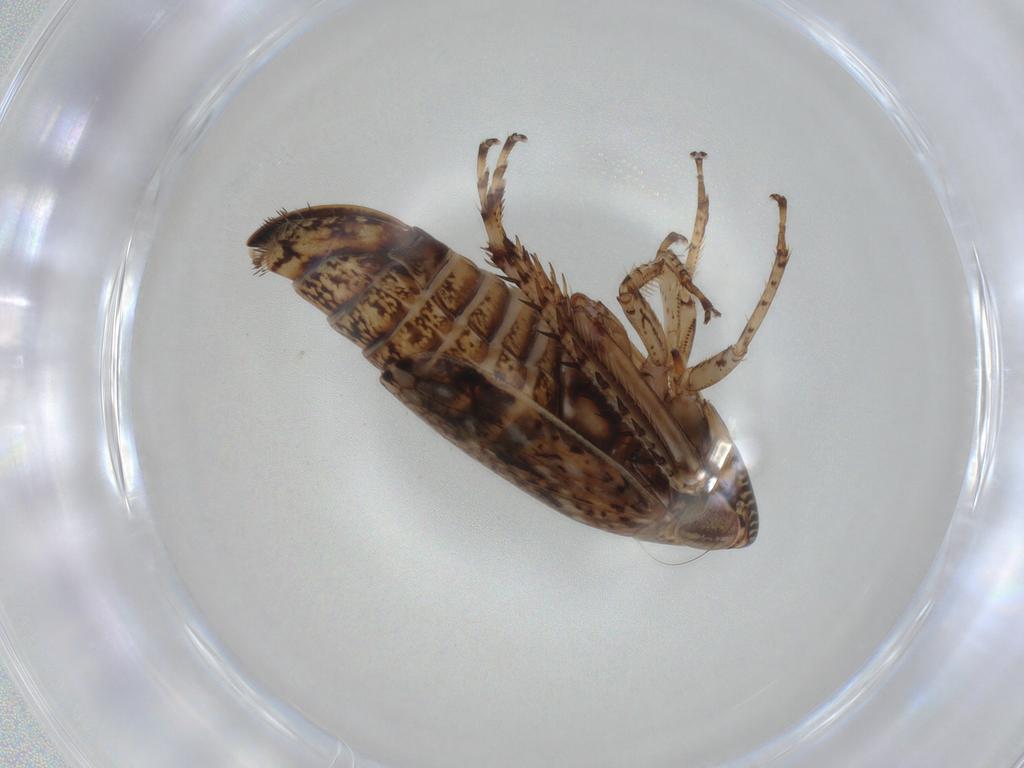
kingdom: Animalia
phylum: Arthropoda
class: Insecta
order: Hemiptera
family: Cicadellidae
